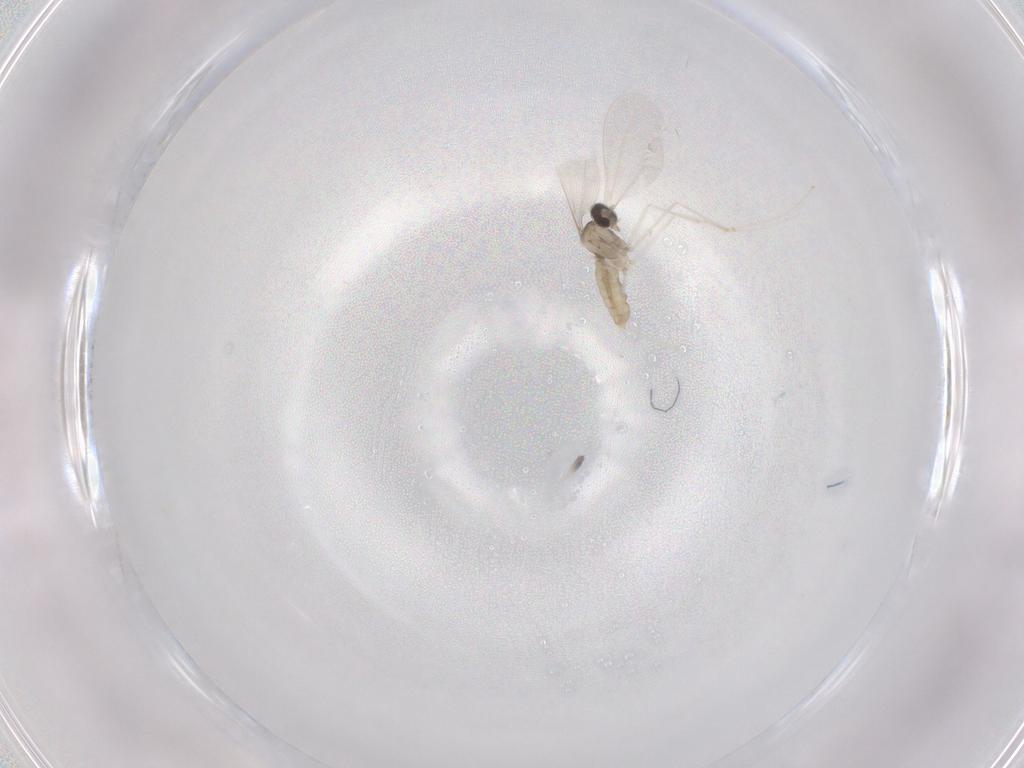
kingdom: Animalia
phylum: Arthropoda
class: Insecta
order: Diptera
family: Cecidomyiidae
